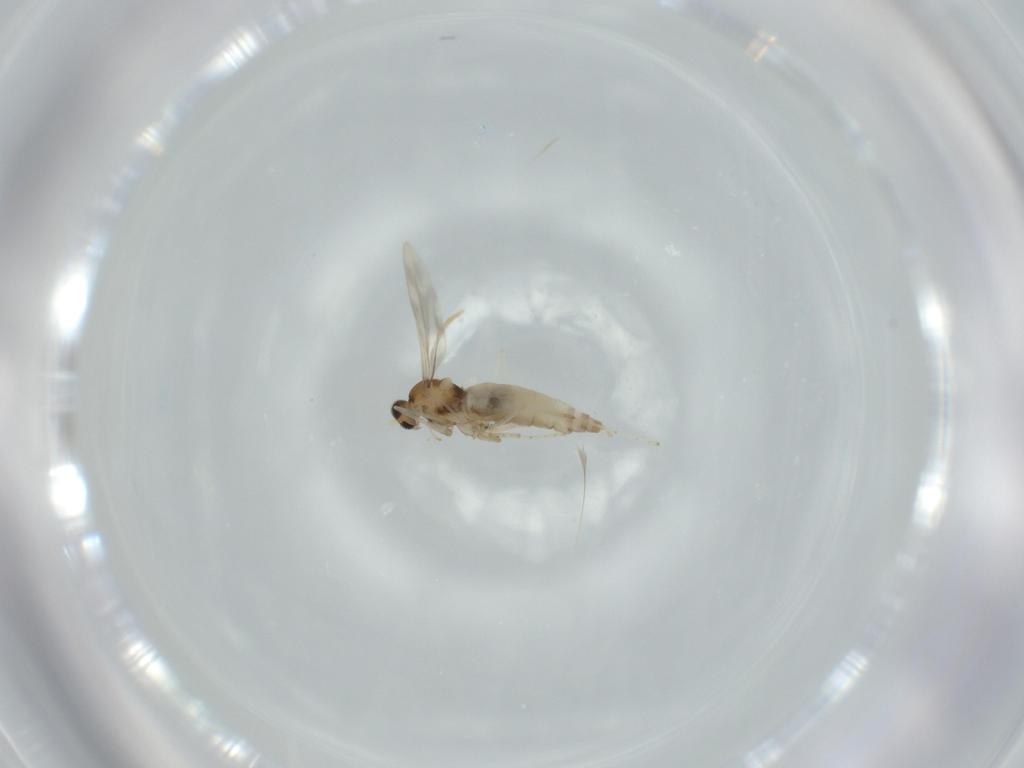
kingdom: Animalia
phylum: Arthropoda
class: Insecta
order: Diptera
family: Cecidomyiidae
